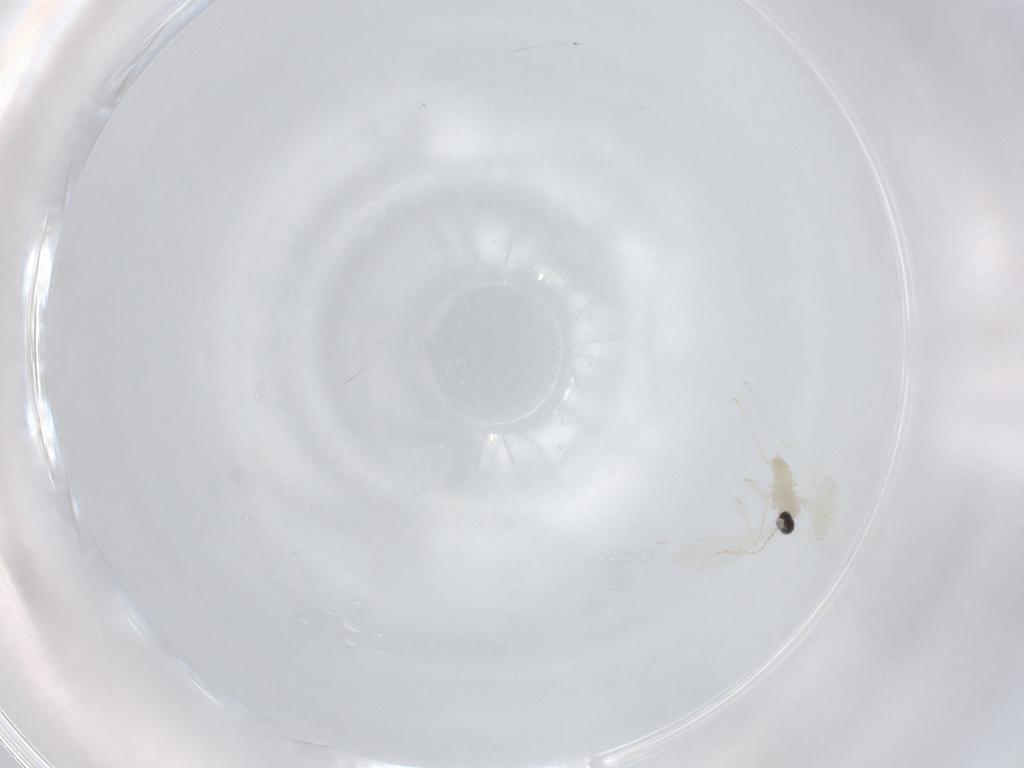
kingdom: Animalia
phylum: Arthropoda
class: Insecta
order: Diptera
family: Cecidomyiidae
